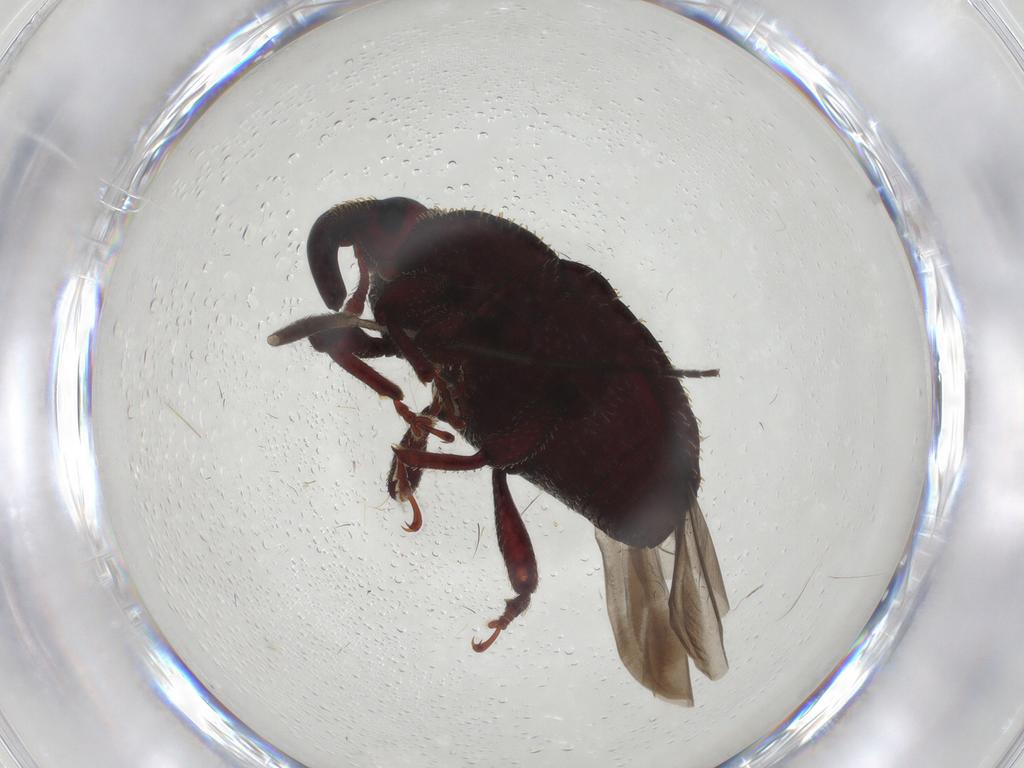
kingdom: Animalia
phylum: Arthropoda
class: Insecta
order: Coleoptera
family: Curculionidae
